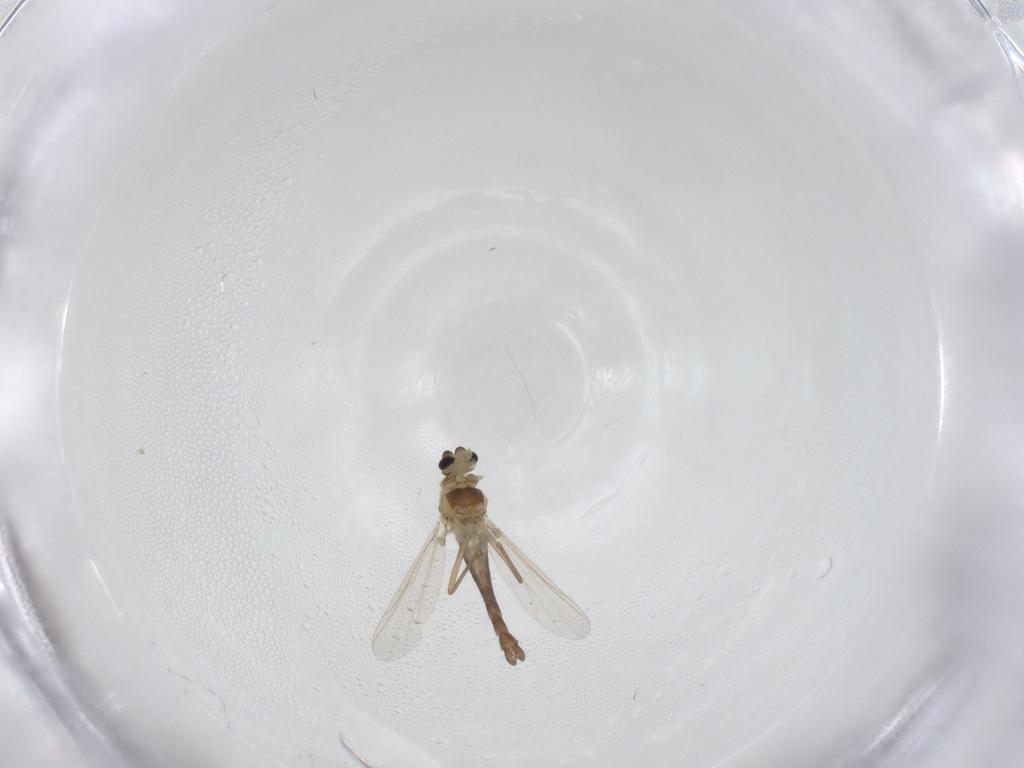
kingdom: Animalia
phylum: Arthropoda
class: Insecta
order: Diptera
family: Chironomidae
